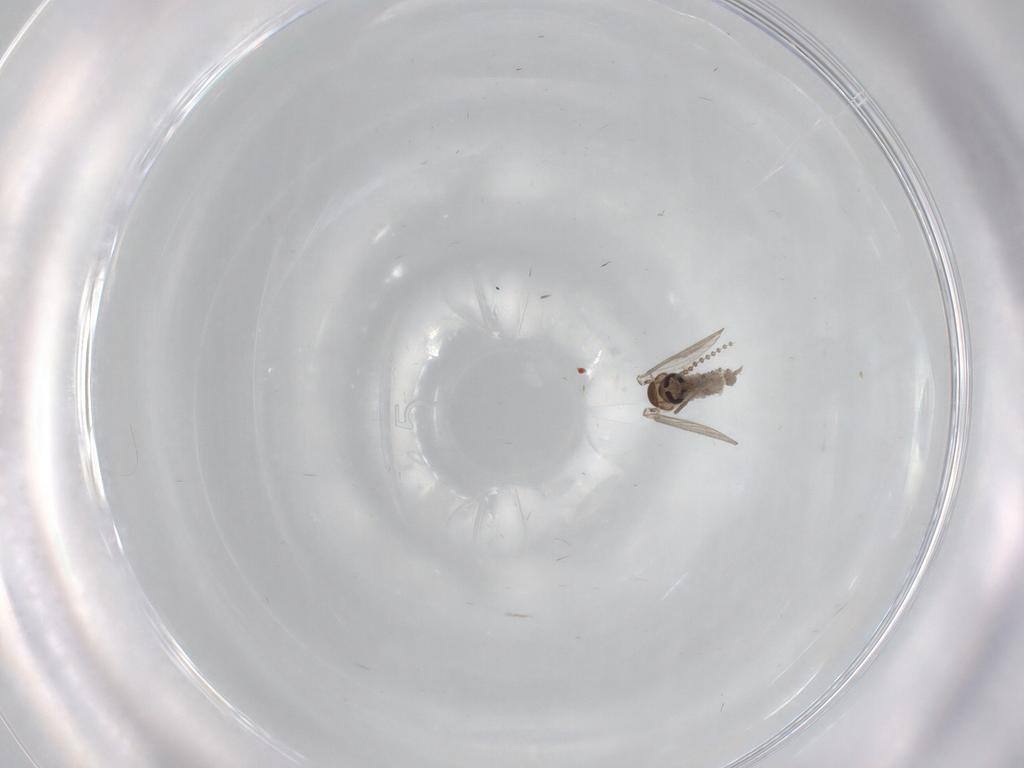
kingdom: Animalia
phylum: Arthropoda
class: Insecta
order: Diptera
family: Psychodidae
